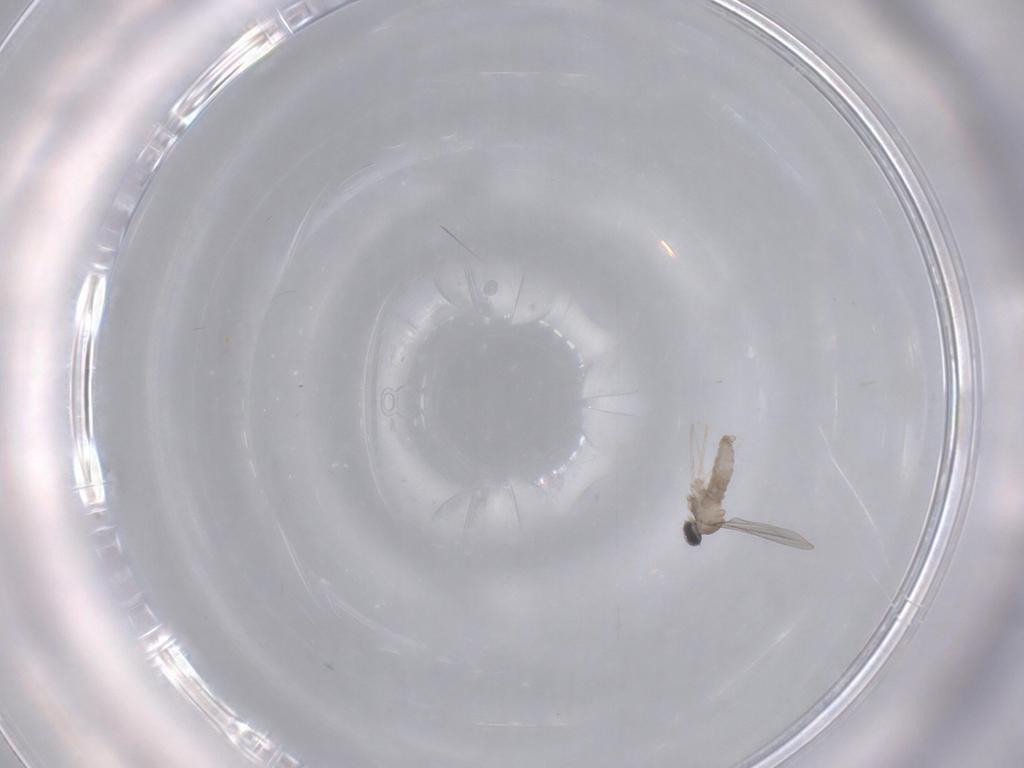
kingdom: Animalia
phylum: Arthropoda
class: Insecta
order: Diptera
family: Cecidomyiidae
